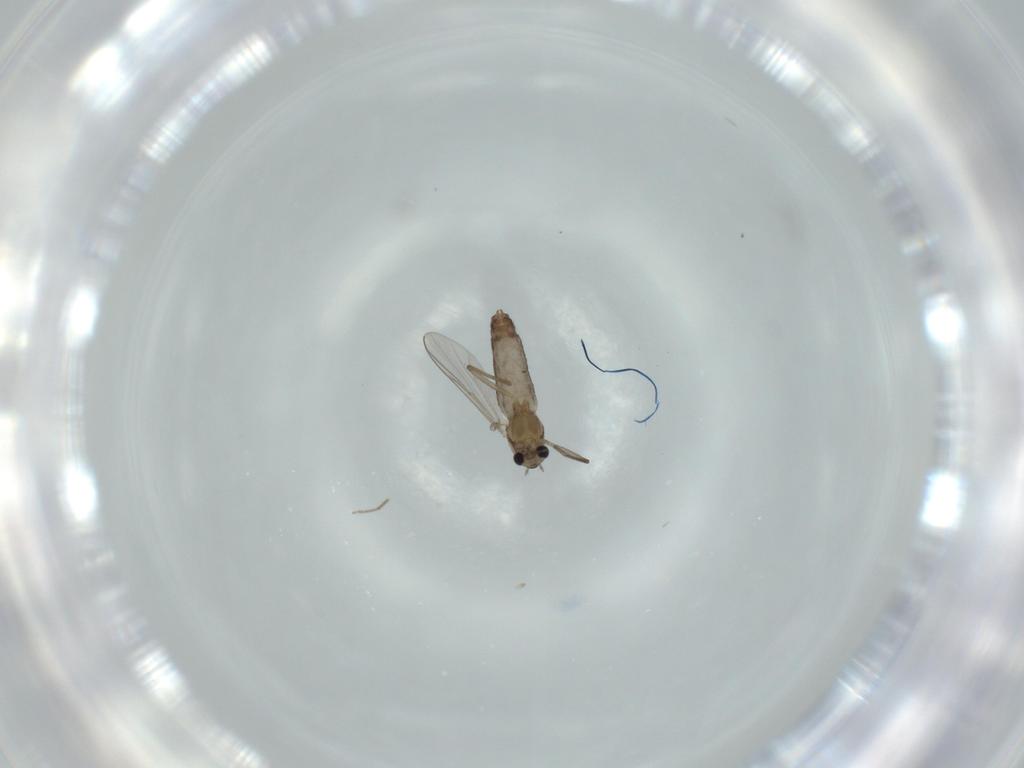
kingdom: Animalia
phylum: Arthropoda
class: Insecta
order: Diptera
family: Chironomidae
